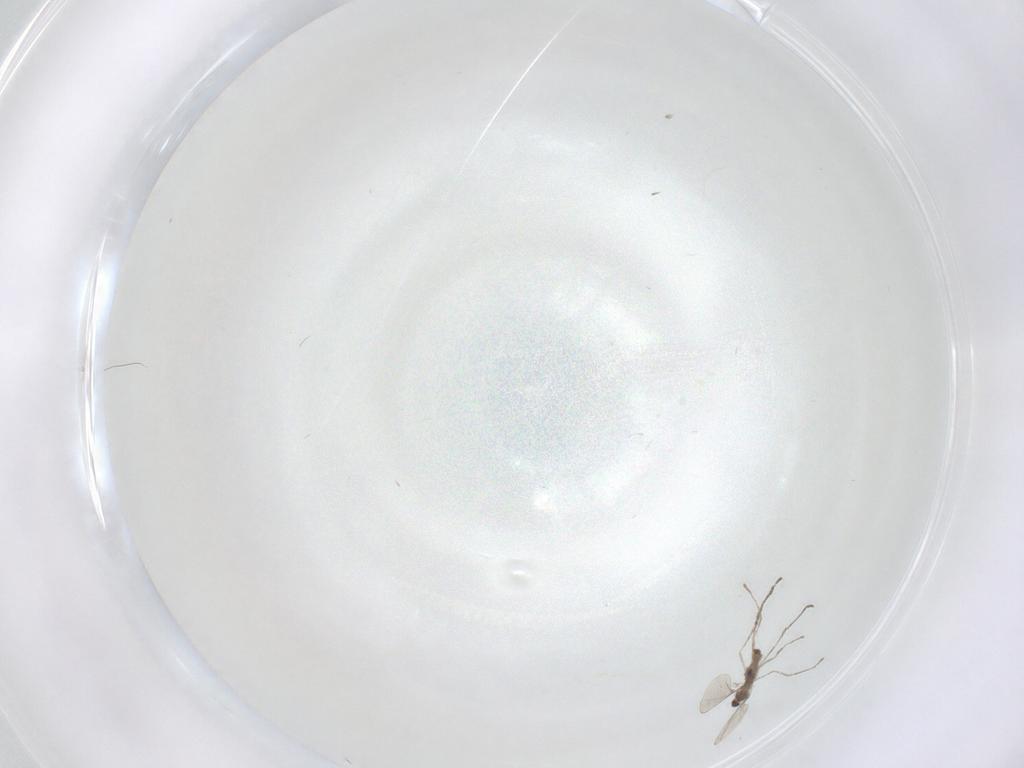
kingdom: Animalia
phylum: Arthropoda
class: Insecta
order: Diptera
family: Cecidomyiidae
